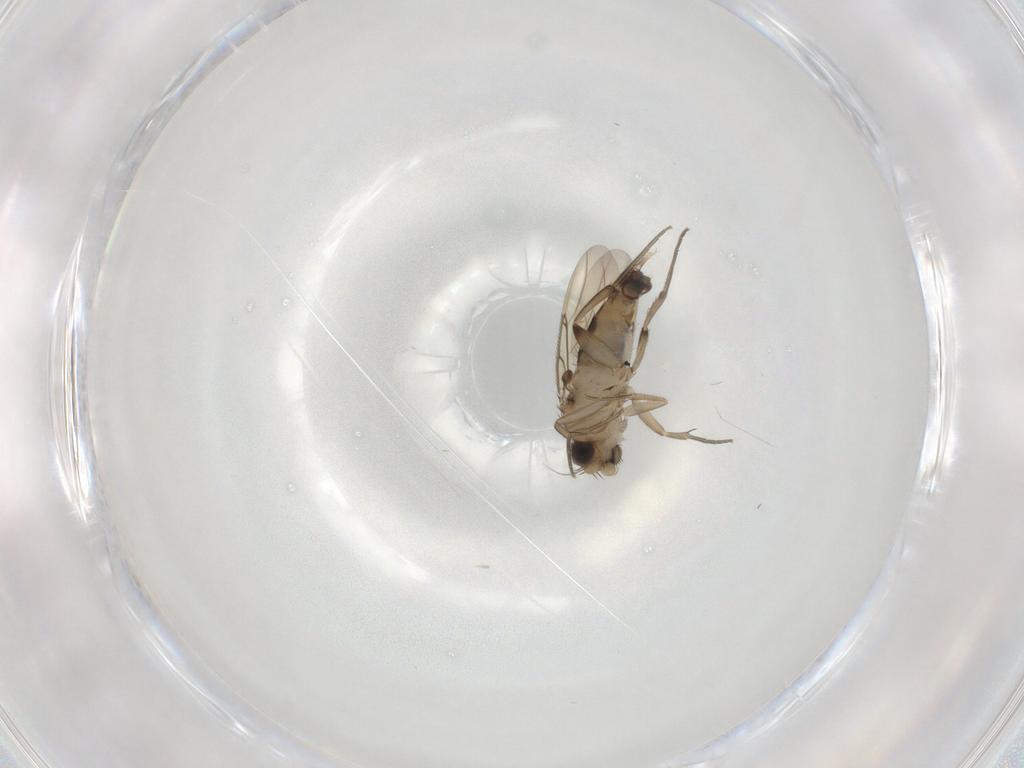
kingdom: Animalia
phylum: Arthropoda
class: Insecta
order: Diptera
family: Phoridae
